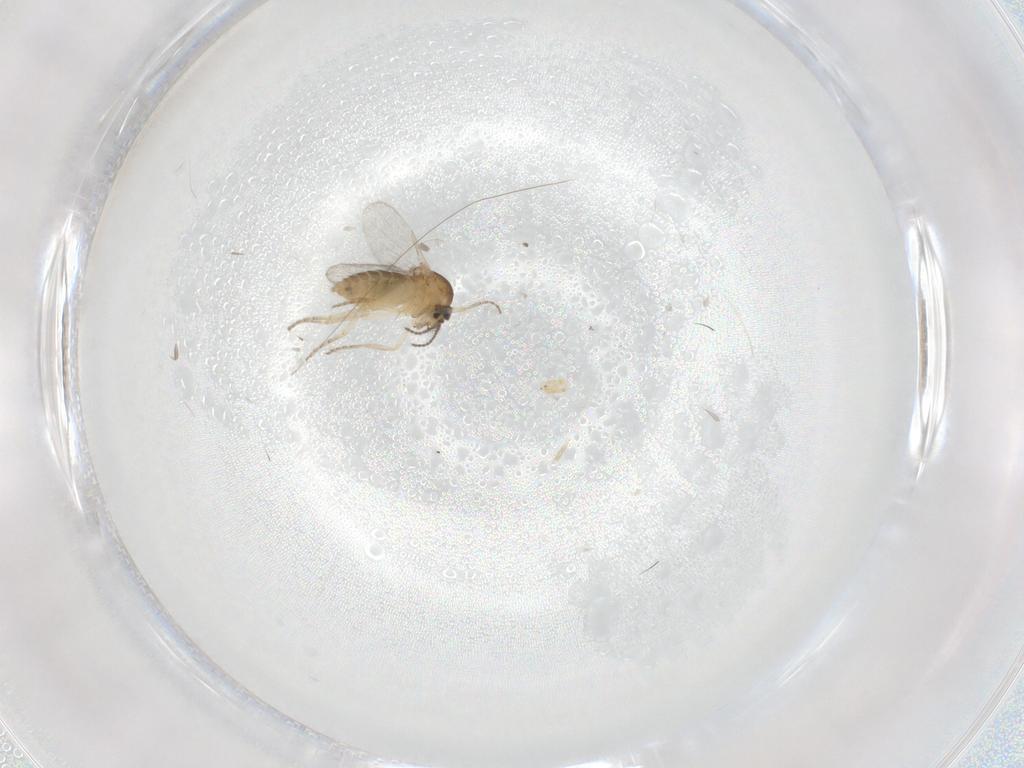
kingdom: Animalia
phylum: Arthropoda
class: Insecta
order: Diptera
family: Ceratopogonidae
